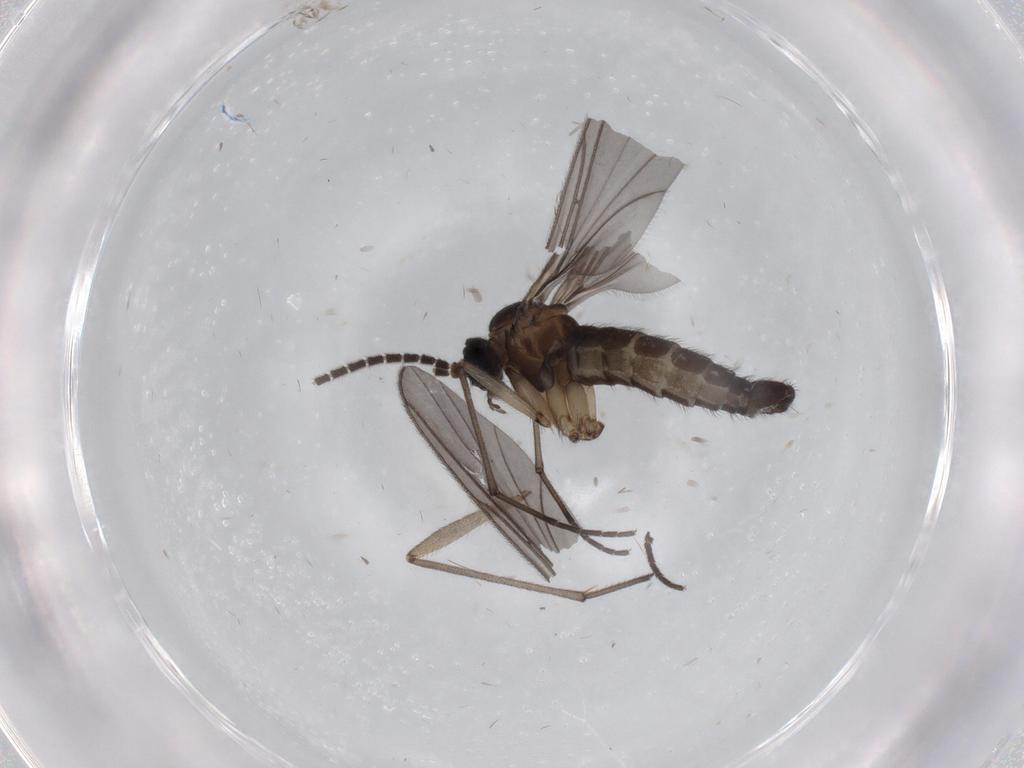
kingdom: Animalia
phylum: Arthropoda
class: Insecta
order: Diptera
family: Sciaridae
